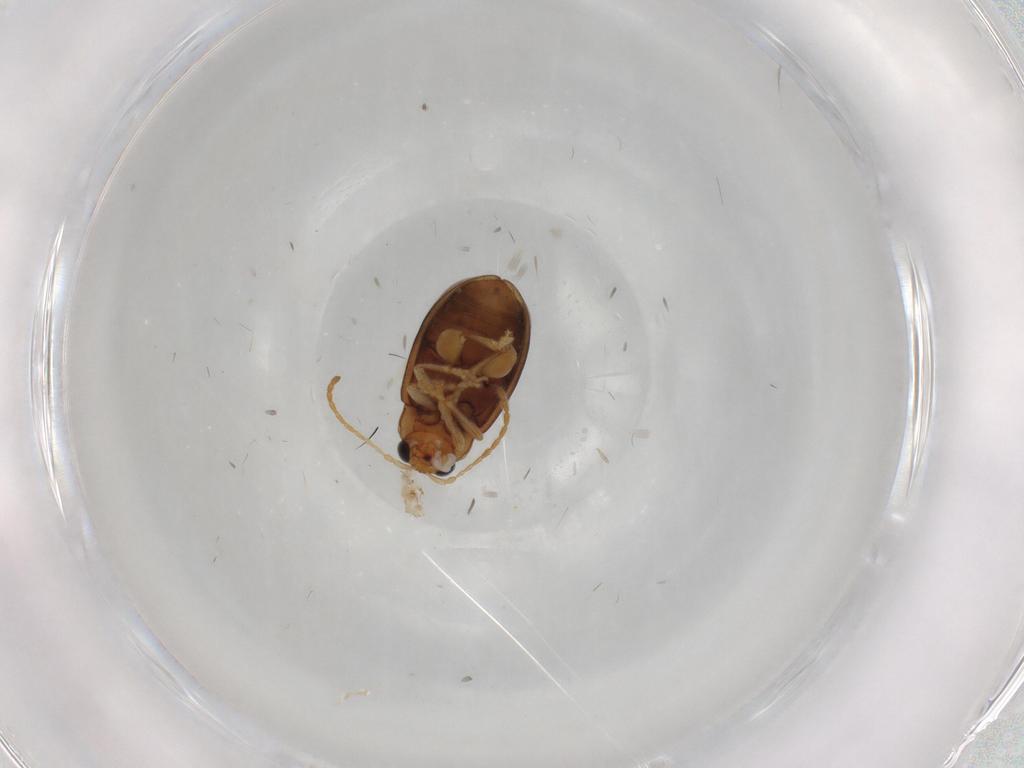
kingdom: Animalia
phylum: Arthropoda
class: Insecta
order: Coleoptera
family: Chrysomelidae
